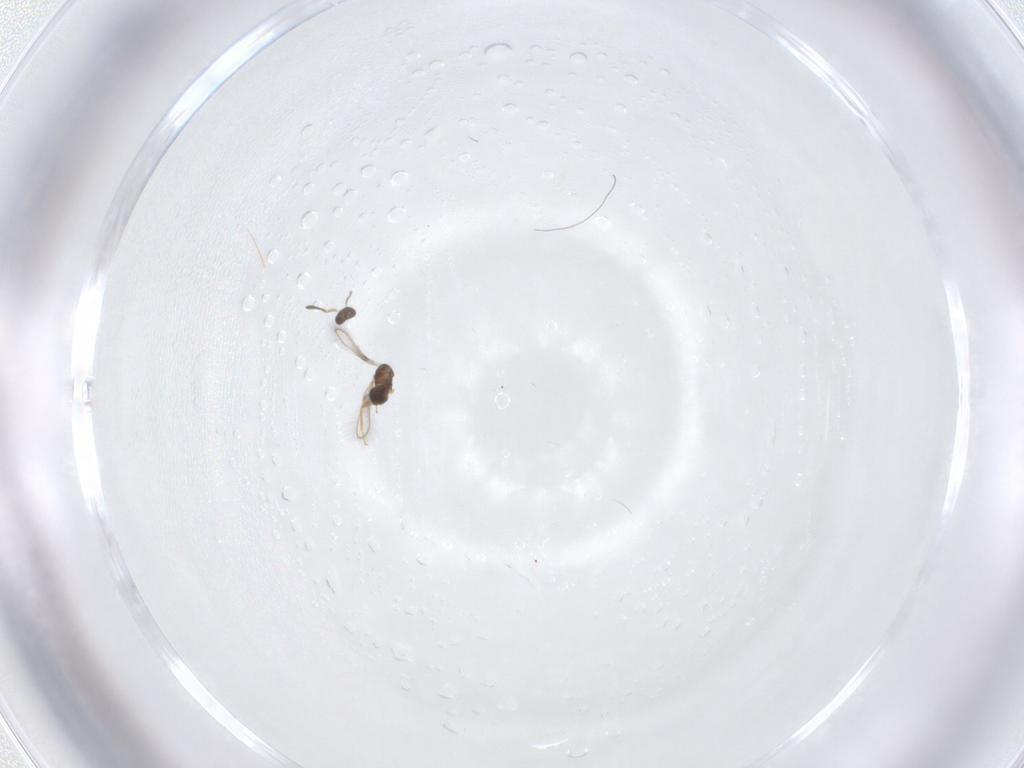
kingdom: Animalia
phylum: Arthropoda
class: Insecta
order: Hymenoptera
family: Mymaridae
